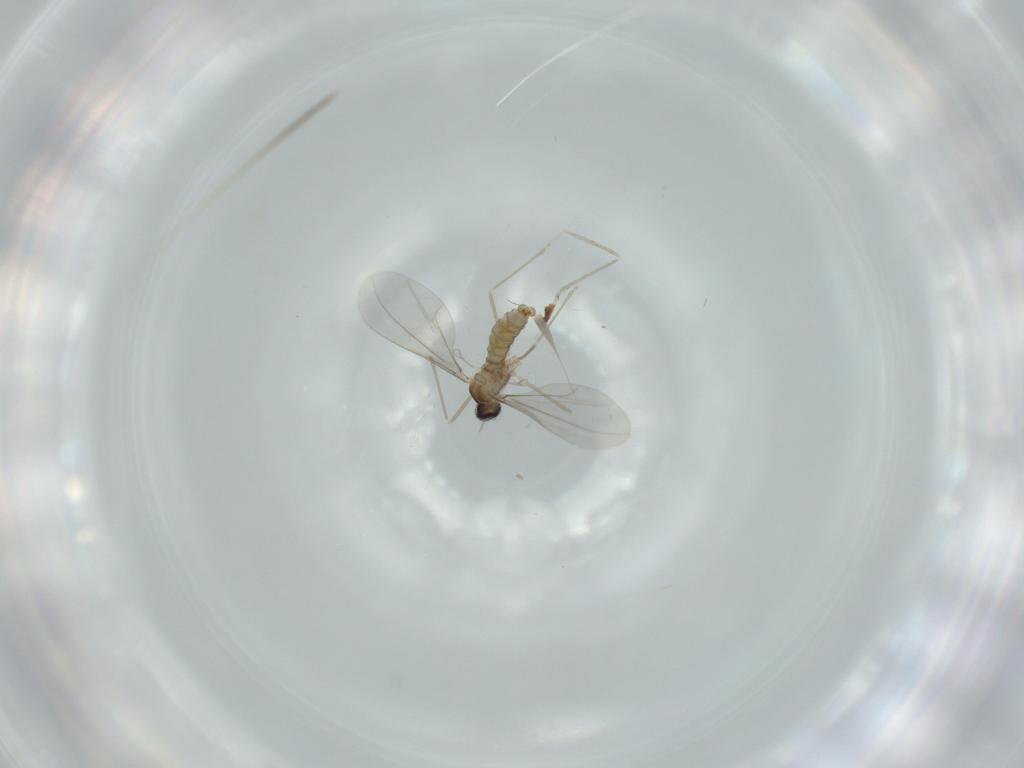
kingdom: Animalia
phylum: Arthropoda
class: Insecta
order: Diptera
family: Cecidomyiidae
